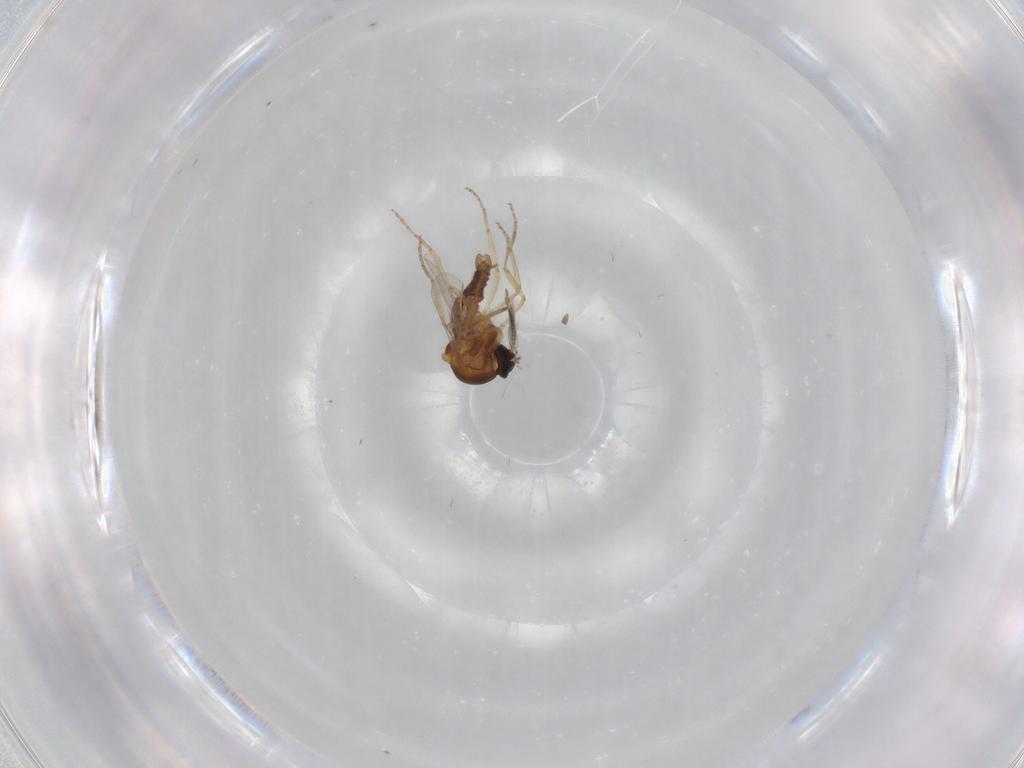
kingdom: Animalia
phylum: Arthropoda
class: Insecta
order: Diptera
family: Ceratopogonidae
